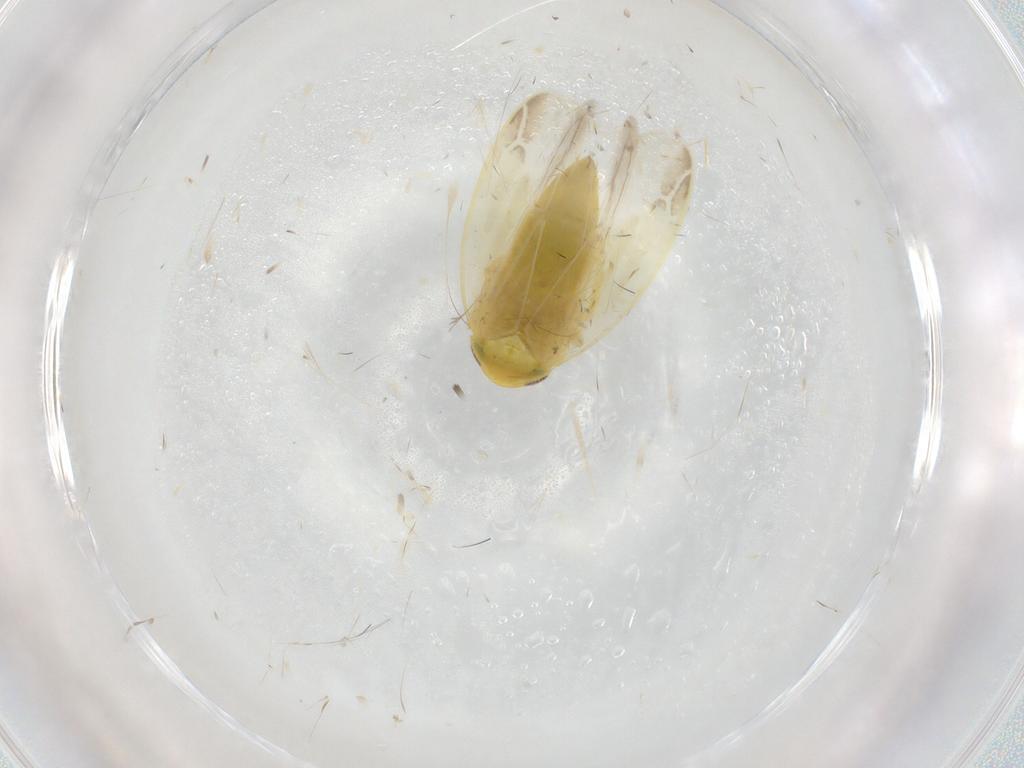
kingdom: Animalia
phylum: Arthropoda
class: Insecta
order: Hemiptera
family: Cicadellidae
